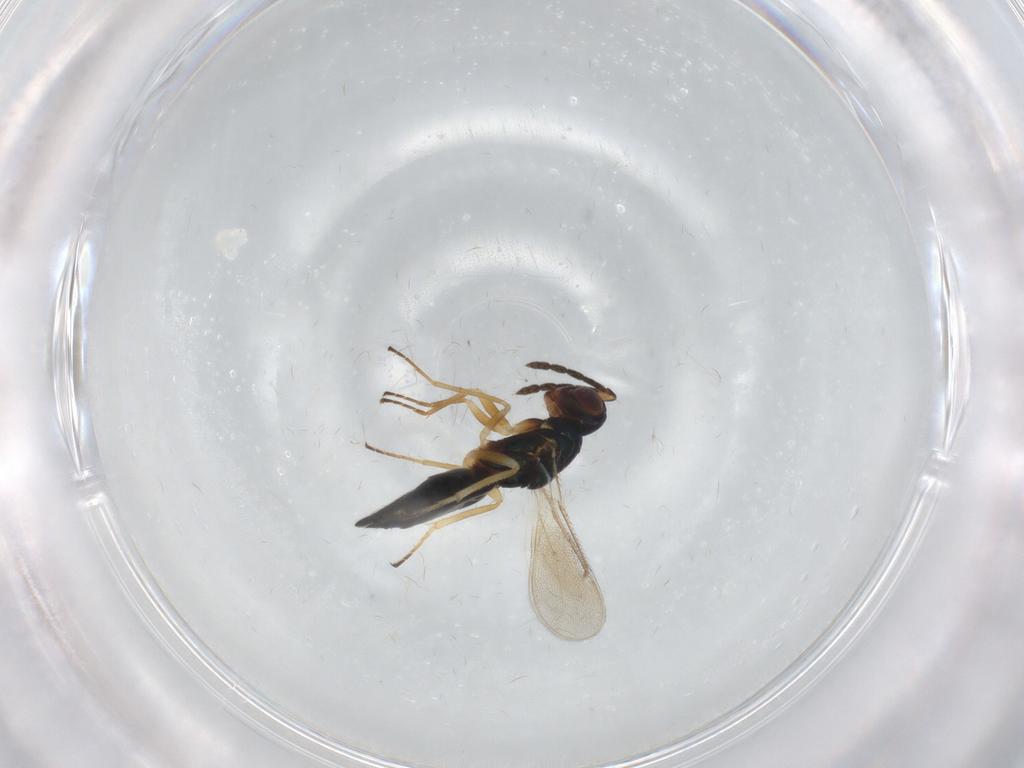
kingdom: Animalia
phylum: Arthropoda
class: Insecta
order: Hymenoptera
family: Eulophidae
